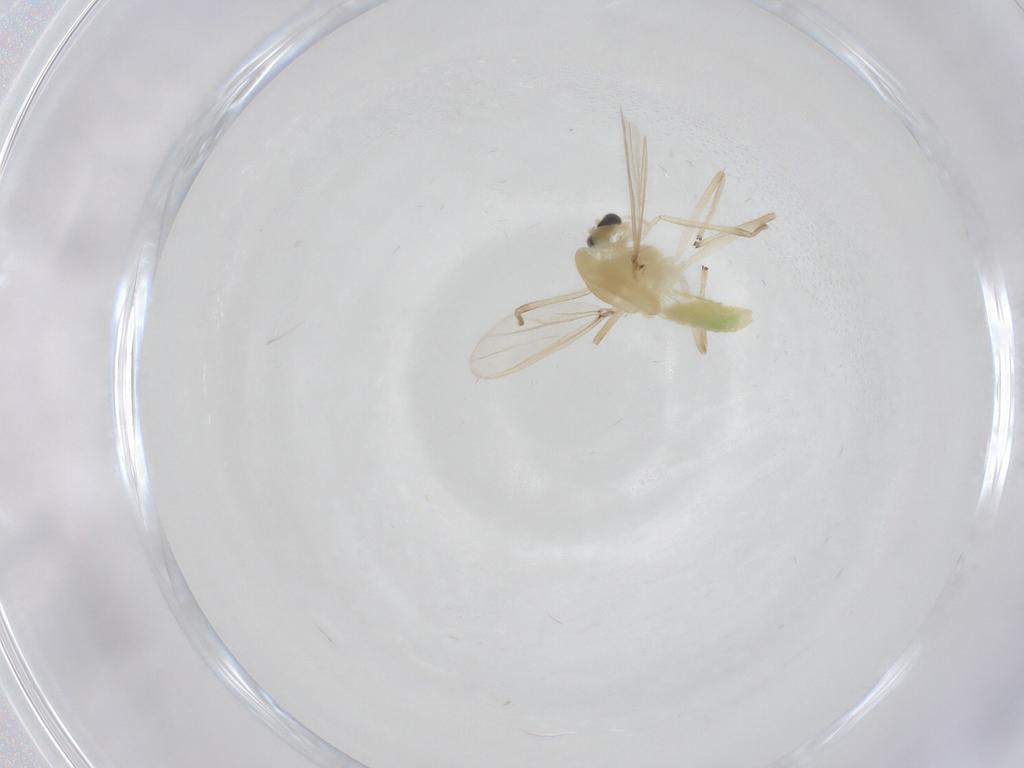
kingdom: Animalia
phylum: Arthropoda
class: Insecta
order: Diptera
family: Chironomidae
